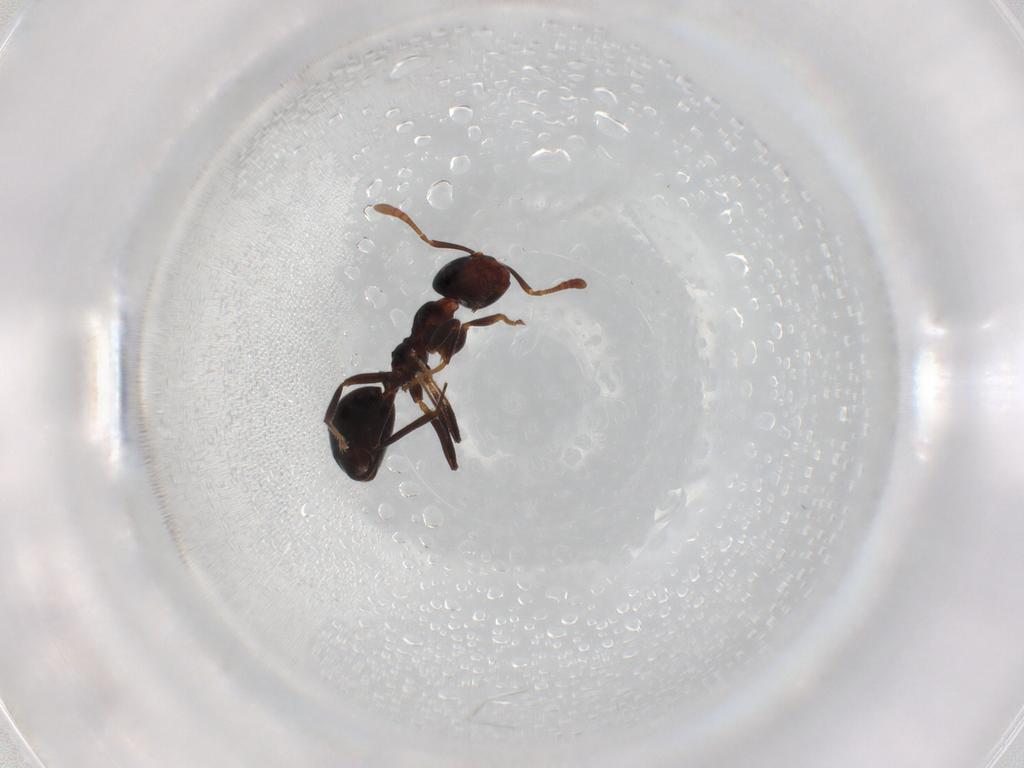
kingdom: Animalia
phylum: Arthropoda
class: Insecta
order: Hymenoptera
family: Formicidae
